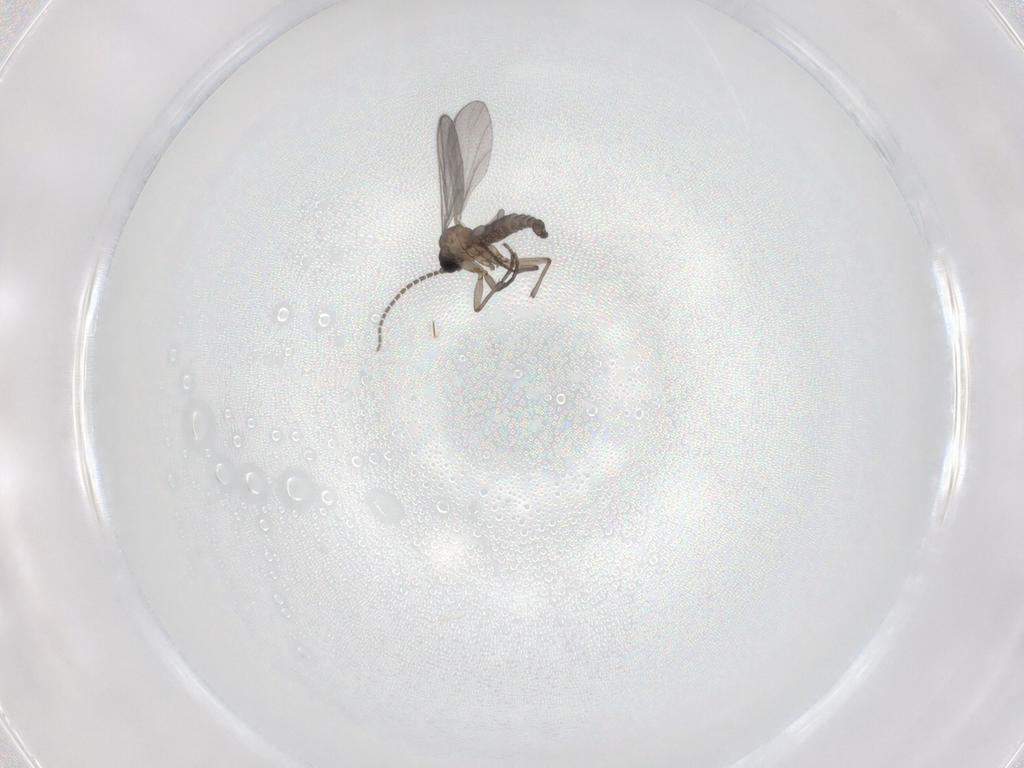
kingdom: Animalia
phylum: Arthropoda
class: Insecta
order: Diptera
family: Sciaridae
